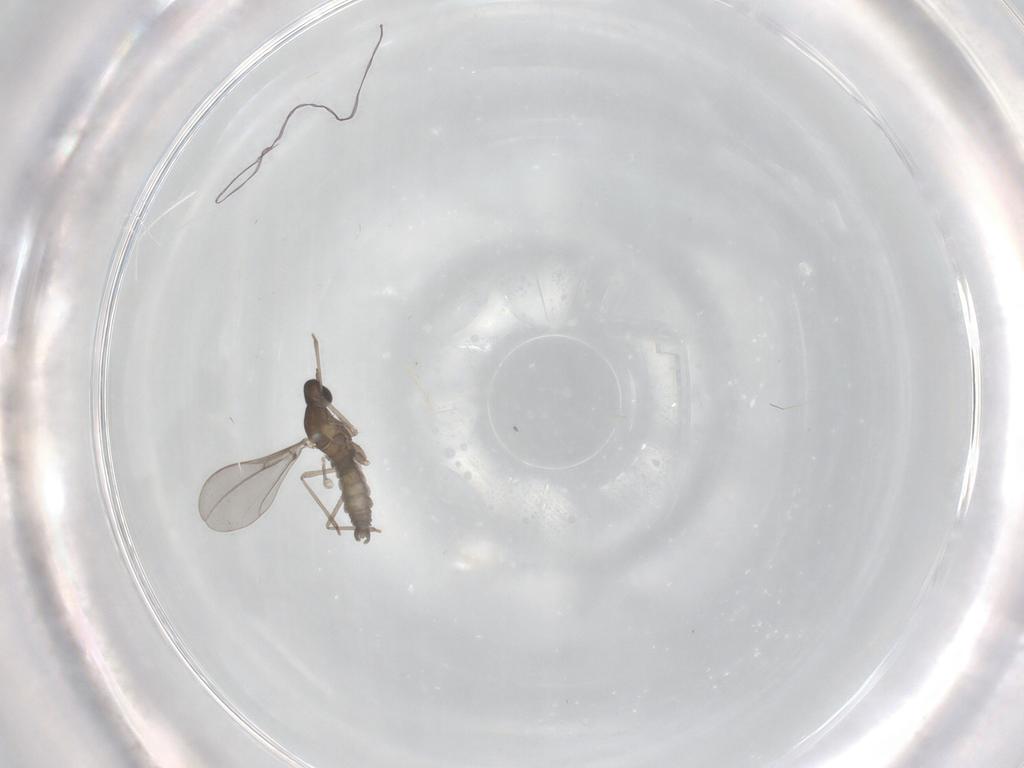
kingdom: Animalia
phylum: Arthropoda
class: Insecta
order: Diptera
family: Cecidomyiidae
